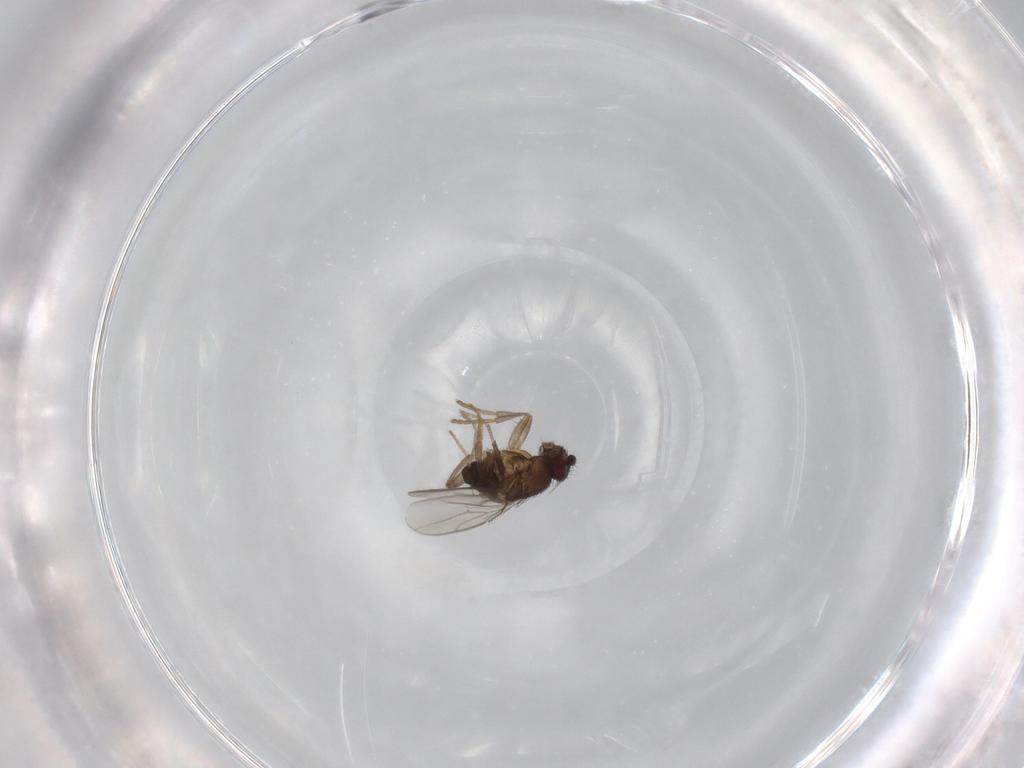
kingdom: Animalia
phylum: Arthropoda
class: Insecta
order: Diptera
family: Sphaeroceridae
